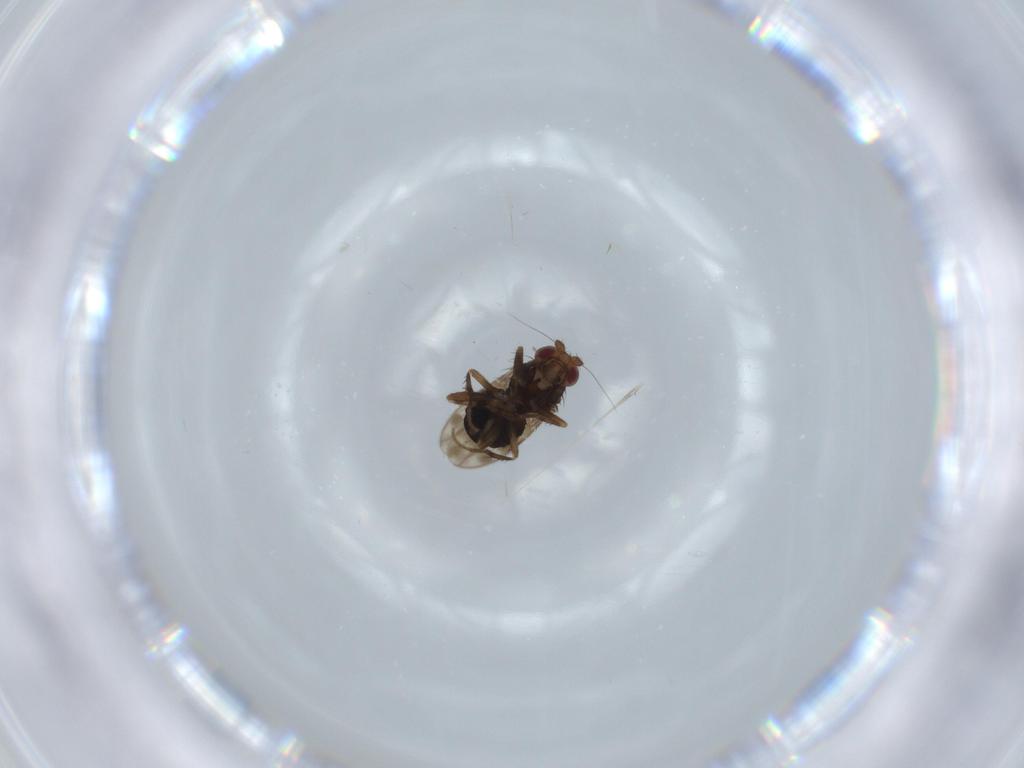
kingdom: Animalia
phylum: Arthropoda
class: Insecta
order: Diptera
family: Sphaeroceridae
